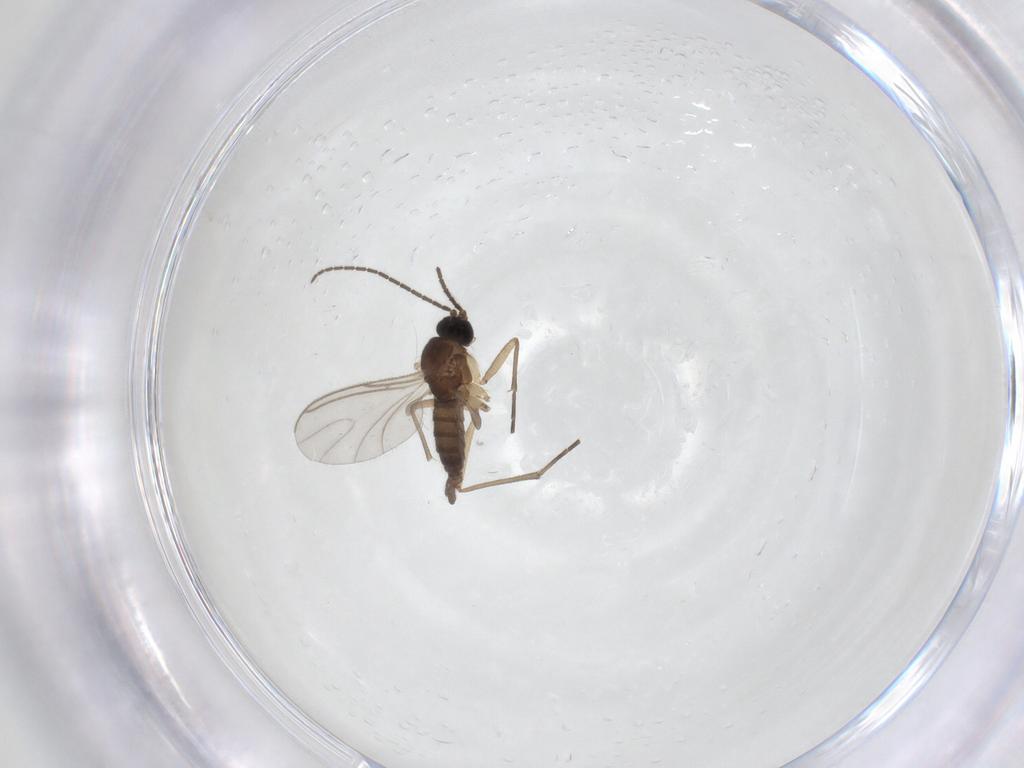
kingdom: Animalia
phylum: Arthropoda
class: Insecta
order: Diptera
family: Sciaridae
